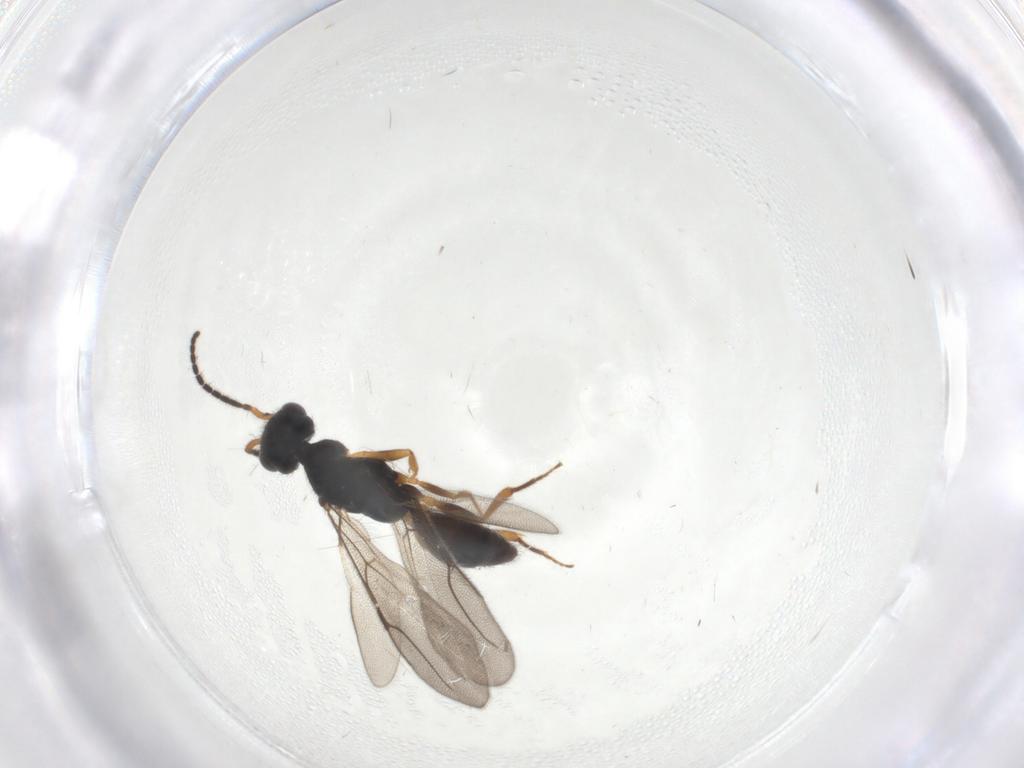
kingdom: Animalia
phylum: Arthropoda
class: Insecta
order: Hymenoptera
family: Bethylidae
